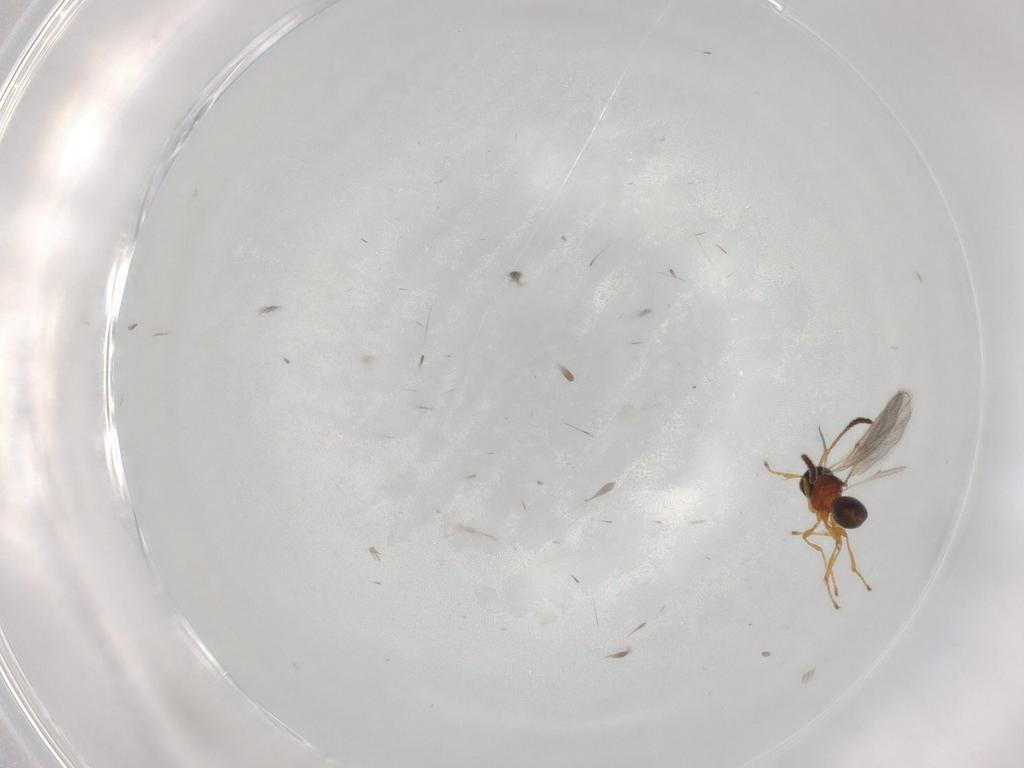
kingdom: Animalia
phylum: Arthropoda
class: Insecta
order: Hymenoptera
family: Diapriidae
